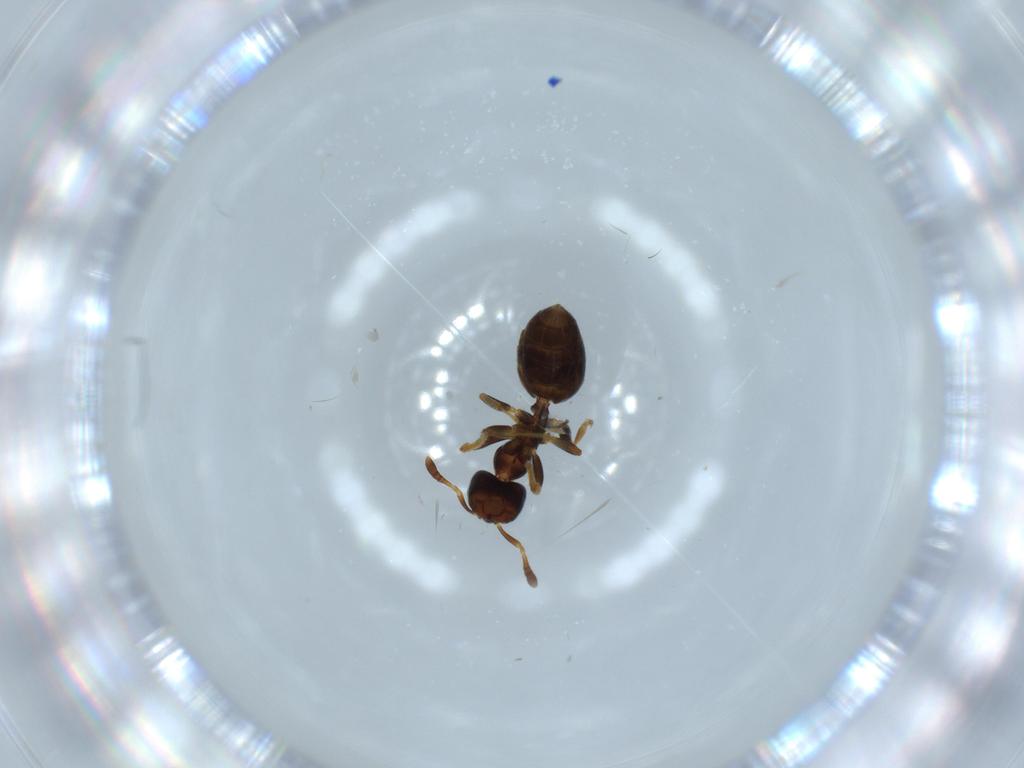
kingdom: Animalia
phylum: Arthropoda
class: Insecta
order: Hymenoptera
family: Formicidae
